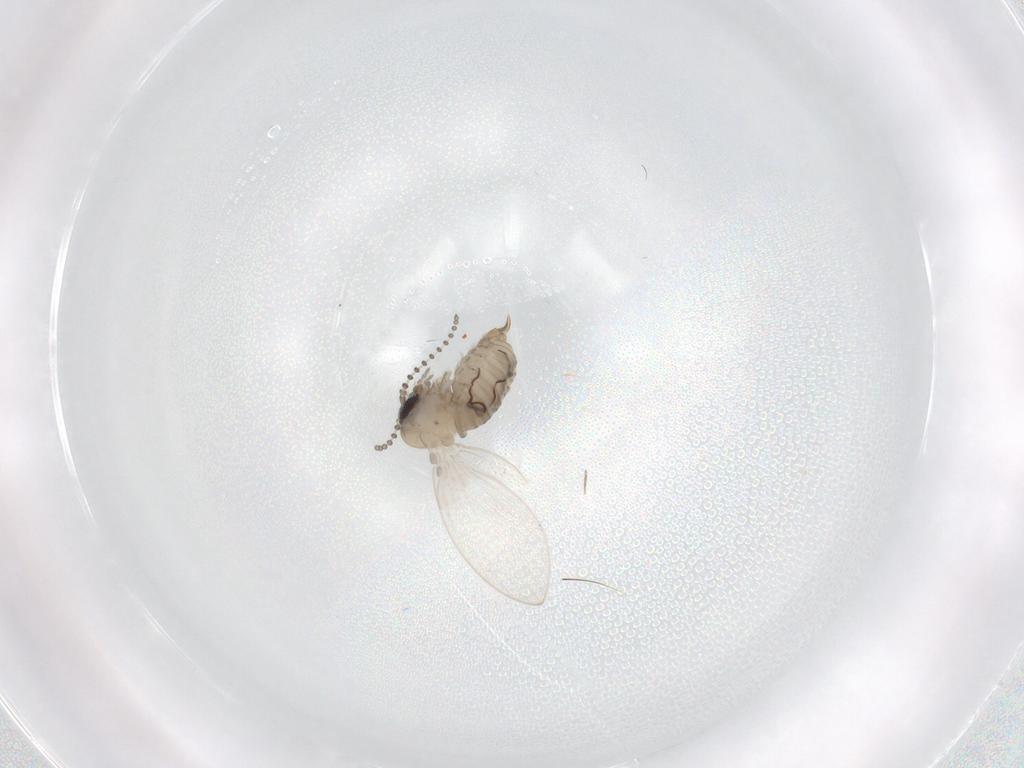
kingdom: Animalia
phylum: Arthropoda
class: Insecta
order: Diptera
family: Psychodidae
